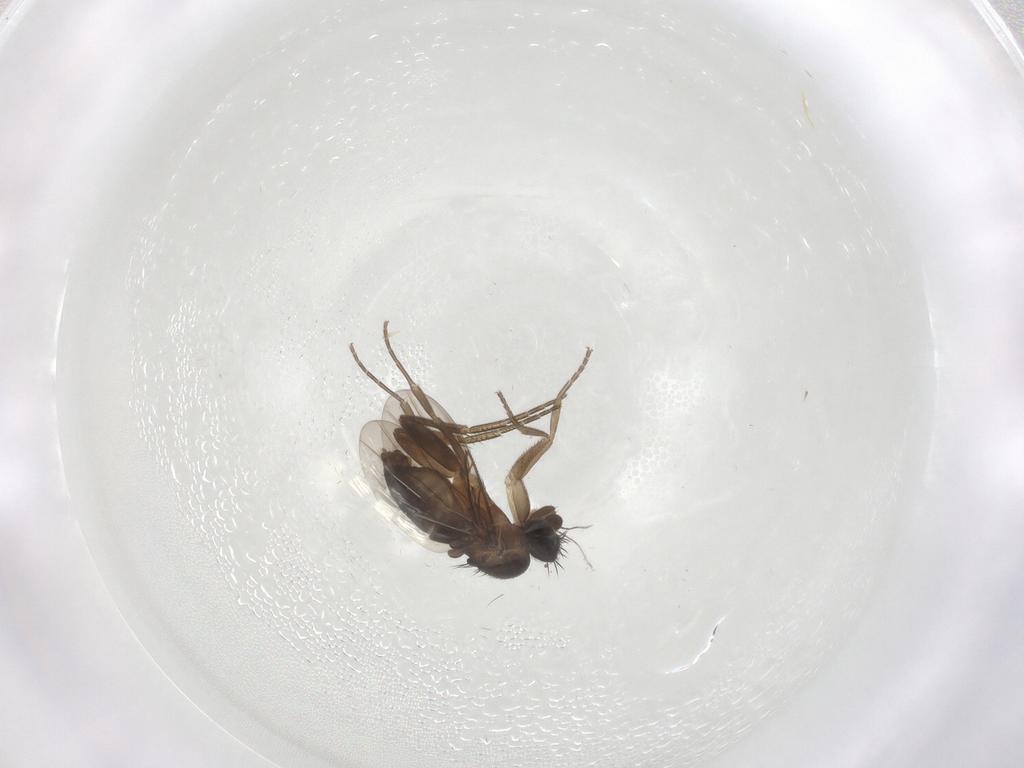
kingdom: Animalia
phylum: Arthropoda
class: Insecta
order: Diptera
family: Phoridae
